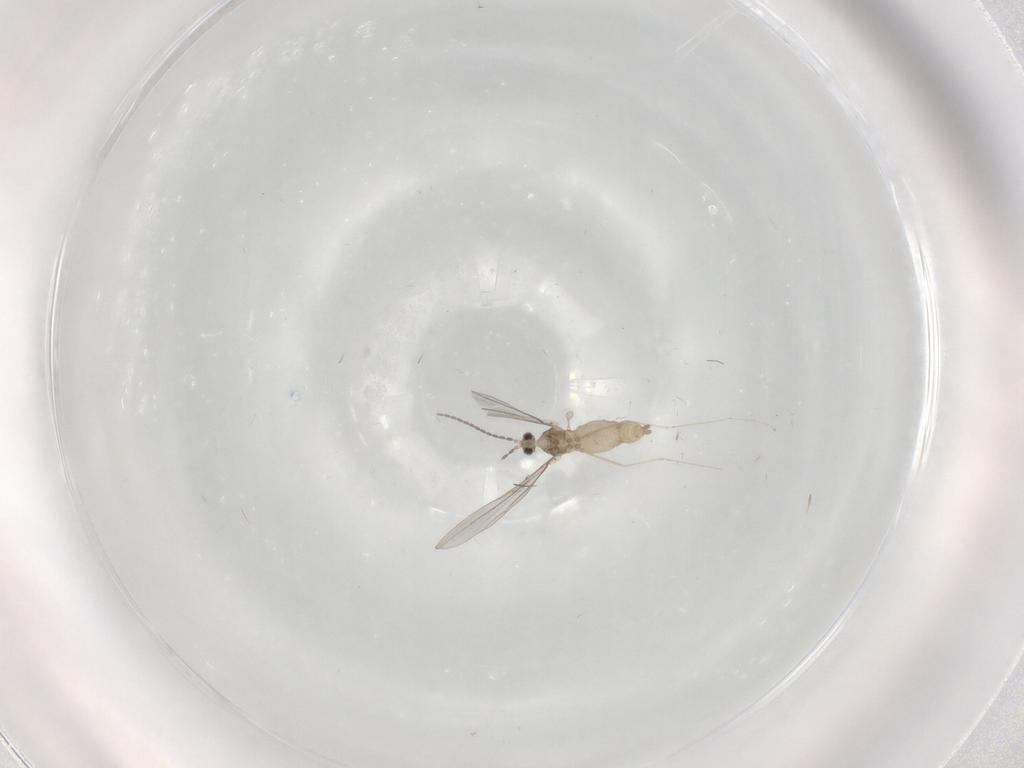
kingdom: Animalia
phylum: Arthropoda
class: Insecta
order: Diptera
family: Cecidomyiidae
